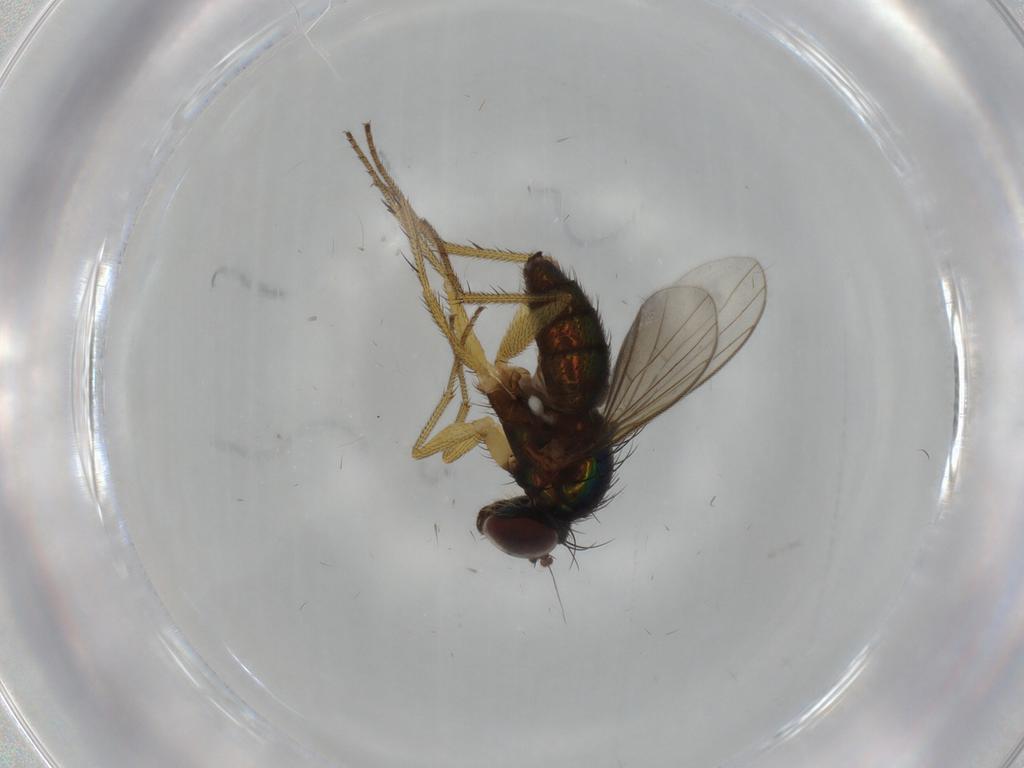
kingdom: Animalia
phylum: Arthropoda
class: Insecta
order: Diptera
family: Dolichopodidae
